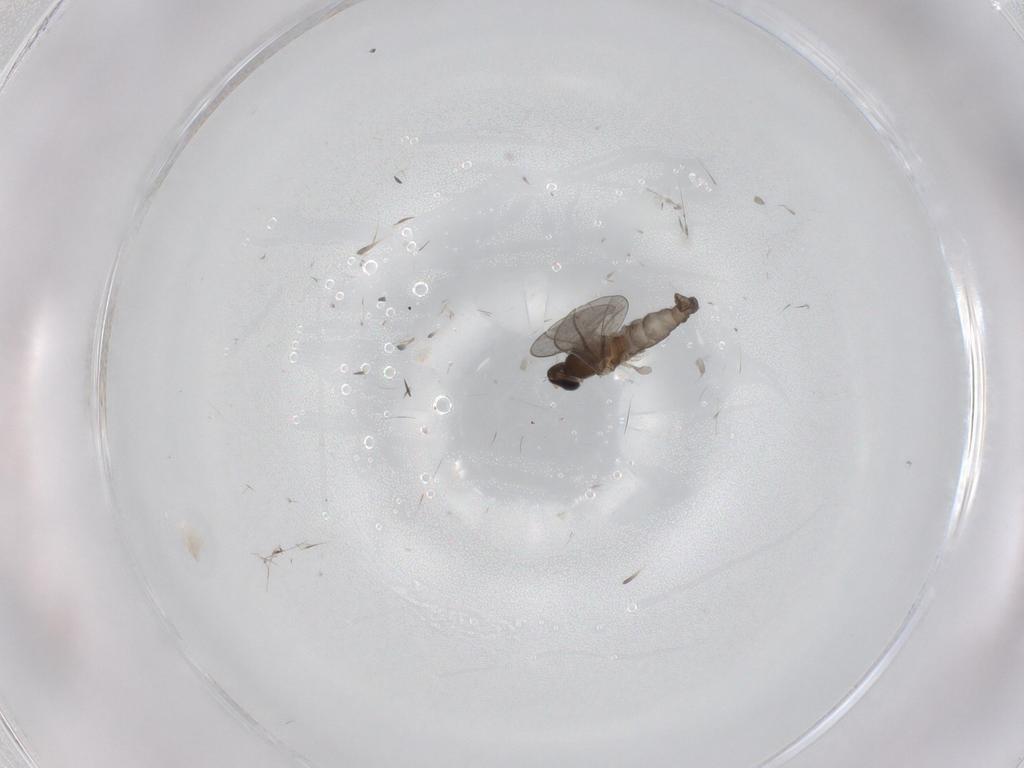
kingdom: Animalia
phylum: Arthropoda
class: Insecta
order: Diptera
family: Cecidomyiidae
